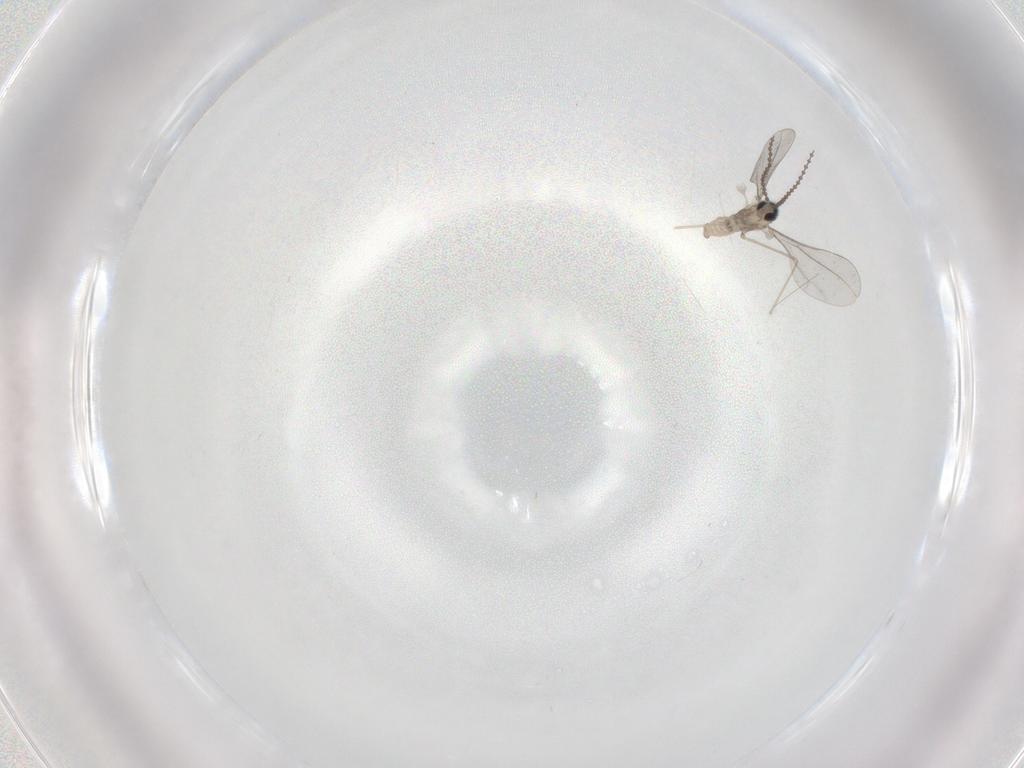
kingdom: Animalia
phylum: Arthropoda
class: Insecta
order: Diptera
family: Cecidomyiidae
